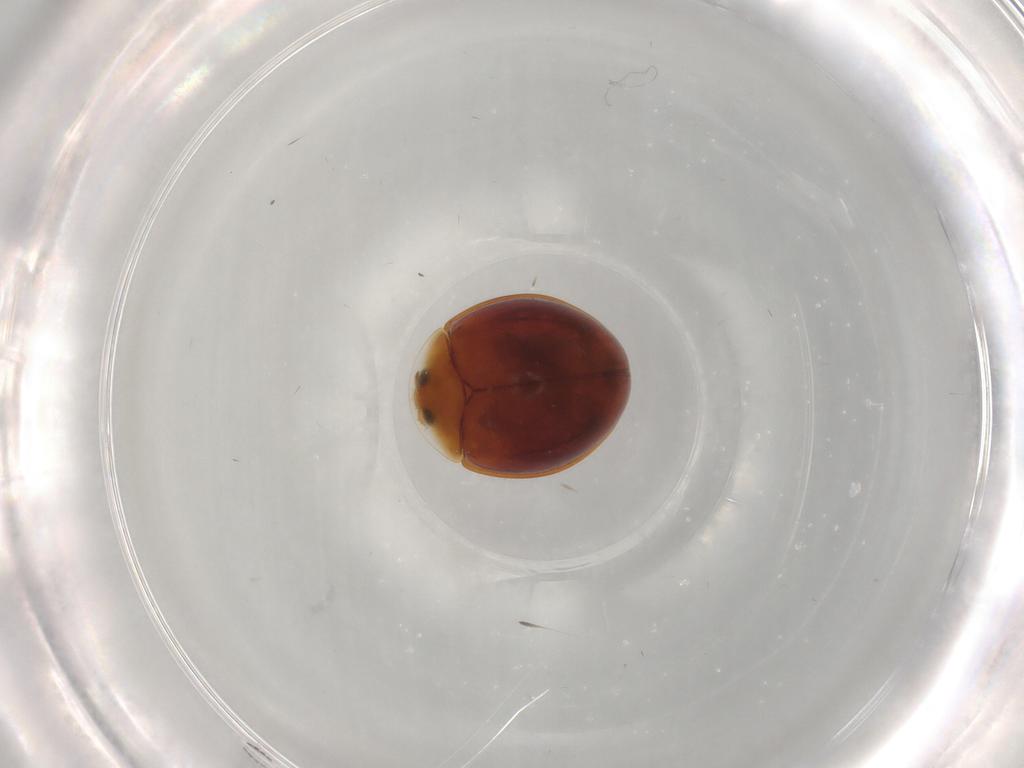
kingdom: Animalia
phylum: Arthropoda
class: Insecta
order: Coleoptera
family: Corylophidae
